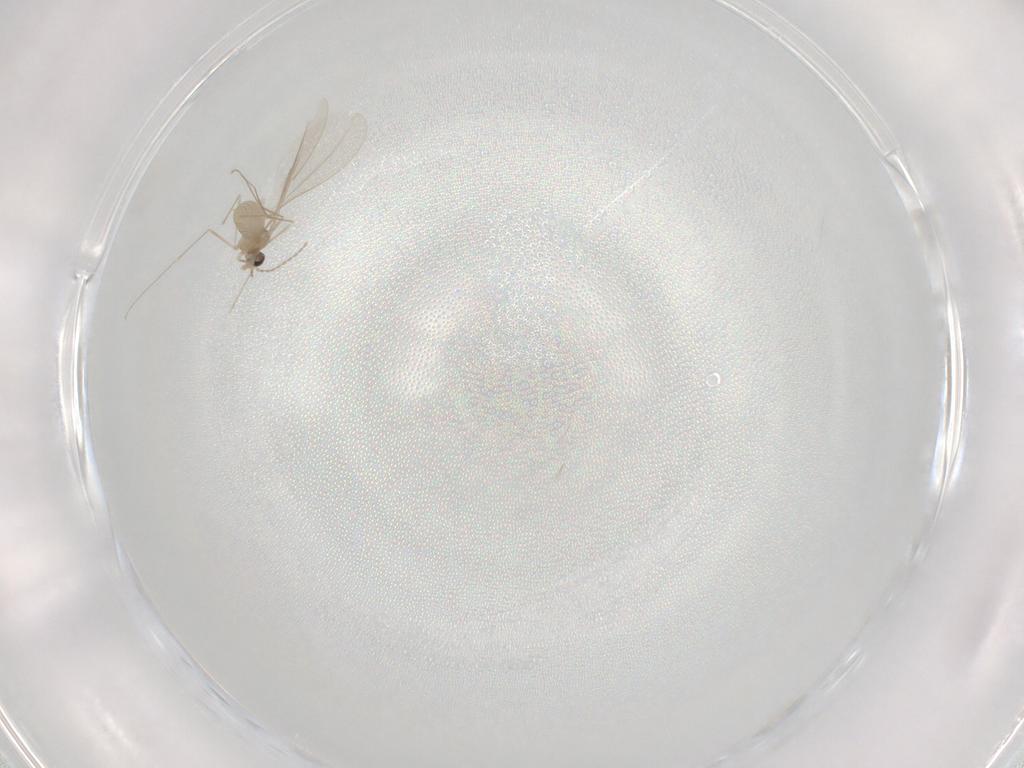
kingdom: Animalia
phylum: Arthropoda
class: Insecta
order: Diptera
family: Cecidomyiidae
